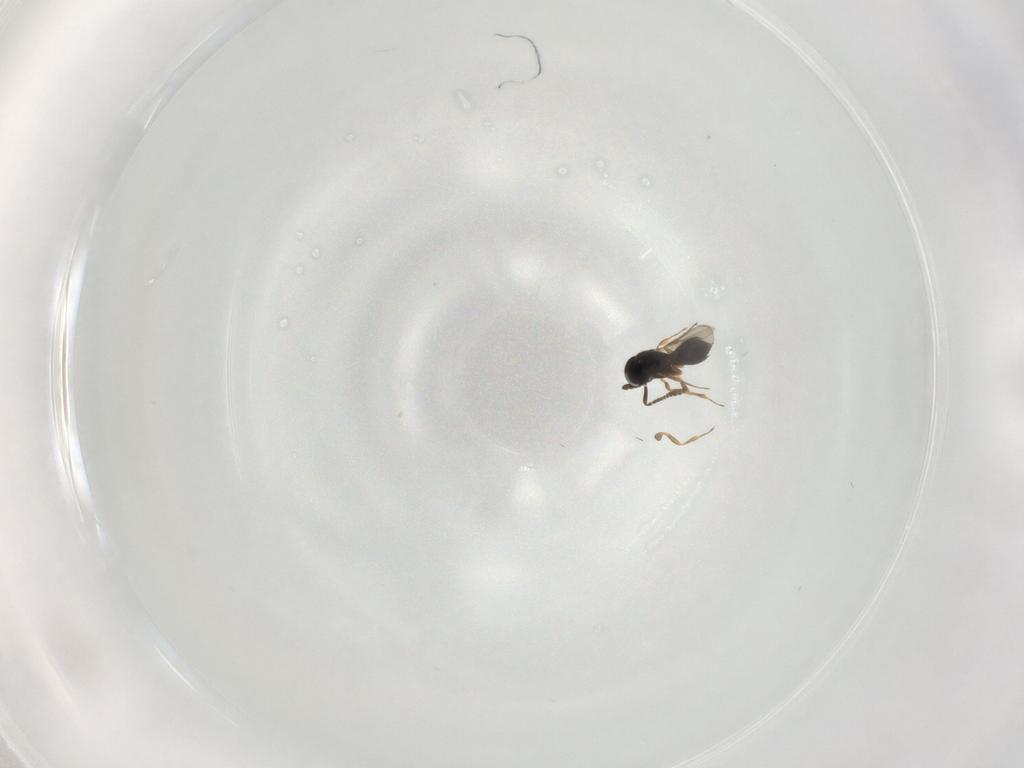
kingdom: Animalia
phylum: Arthropoda
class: Insecta
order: Hymenoptera
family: Scelionidae
